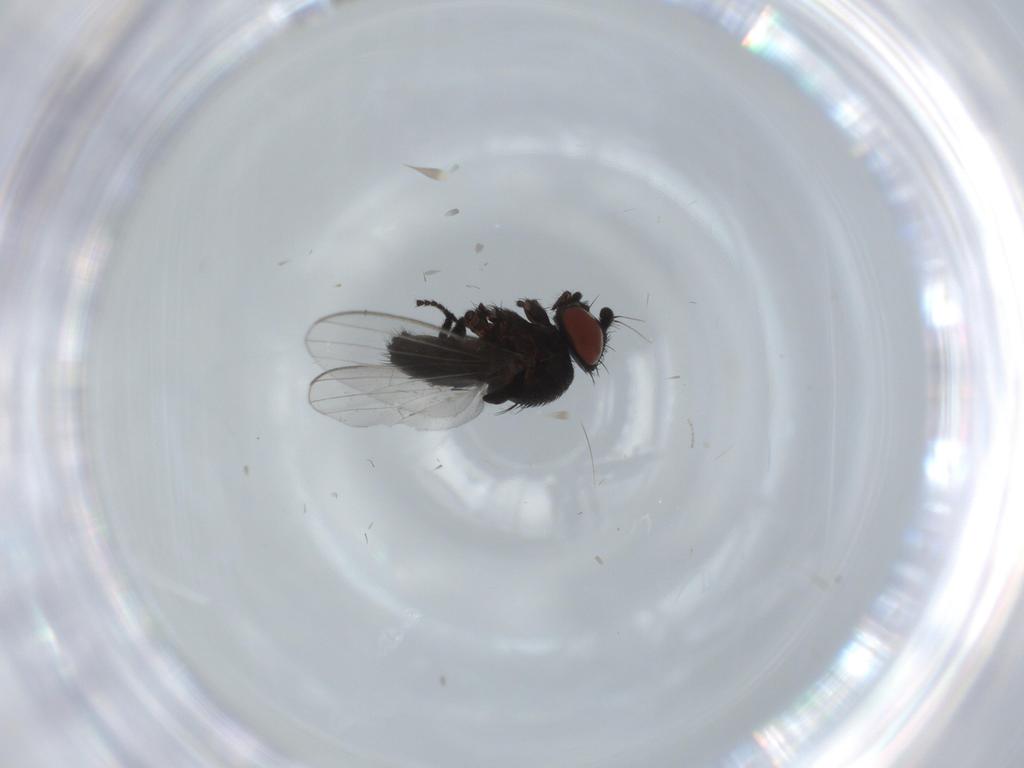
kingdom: Animalia
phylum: Arthropoda
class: Insecta
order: Diptera
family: Milichiidae
